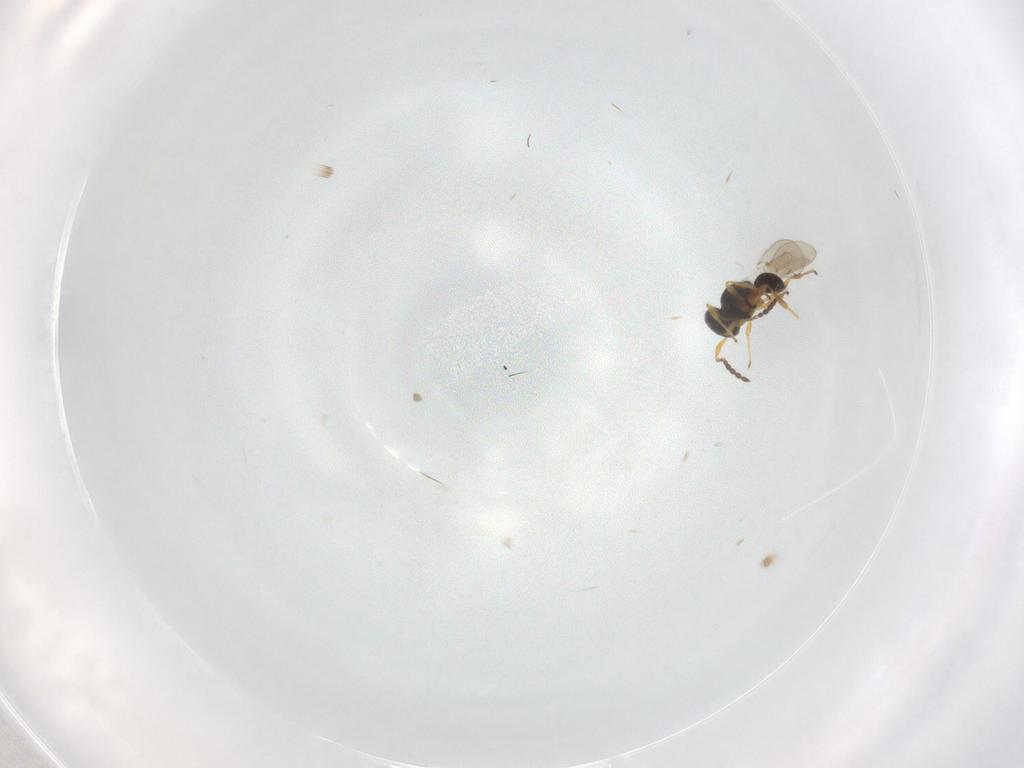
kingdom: Animalia
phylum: Arthropoda
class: Insecta
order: Hymenoptera
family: Platygastridae
